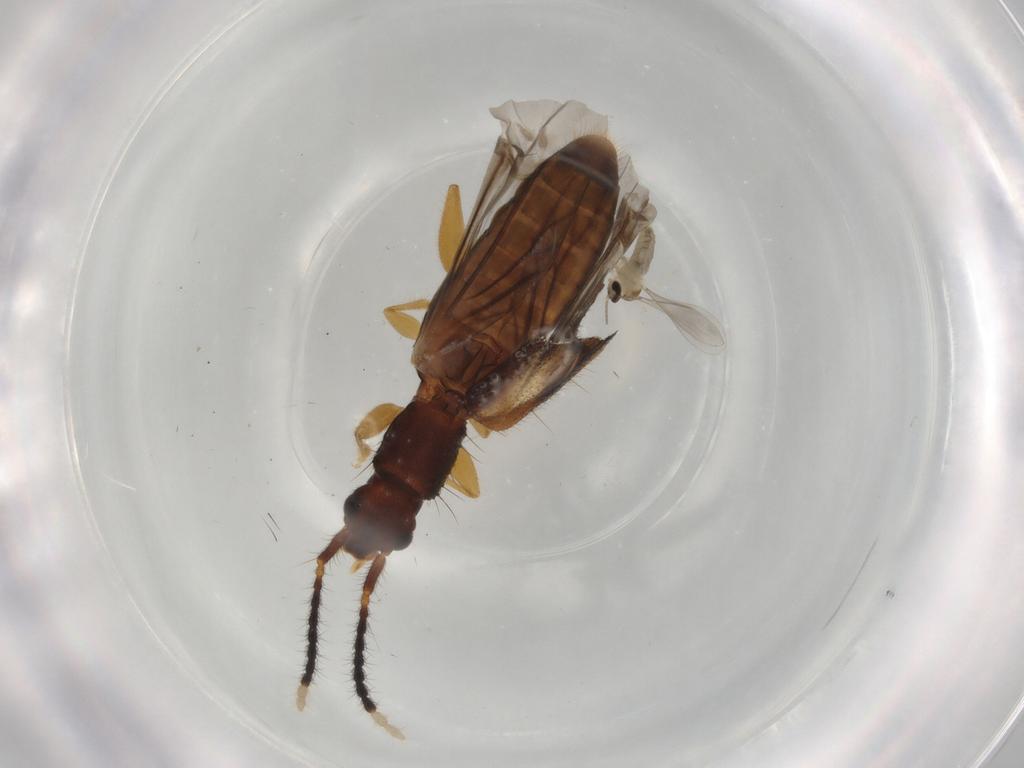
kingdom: Animalia
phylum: Arthropoda
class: Insecta
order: Coleoptera
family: Silvanidae
